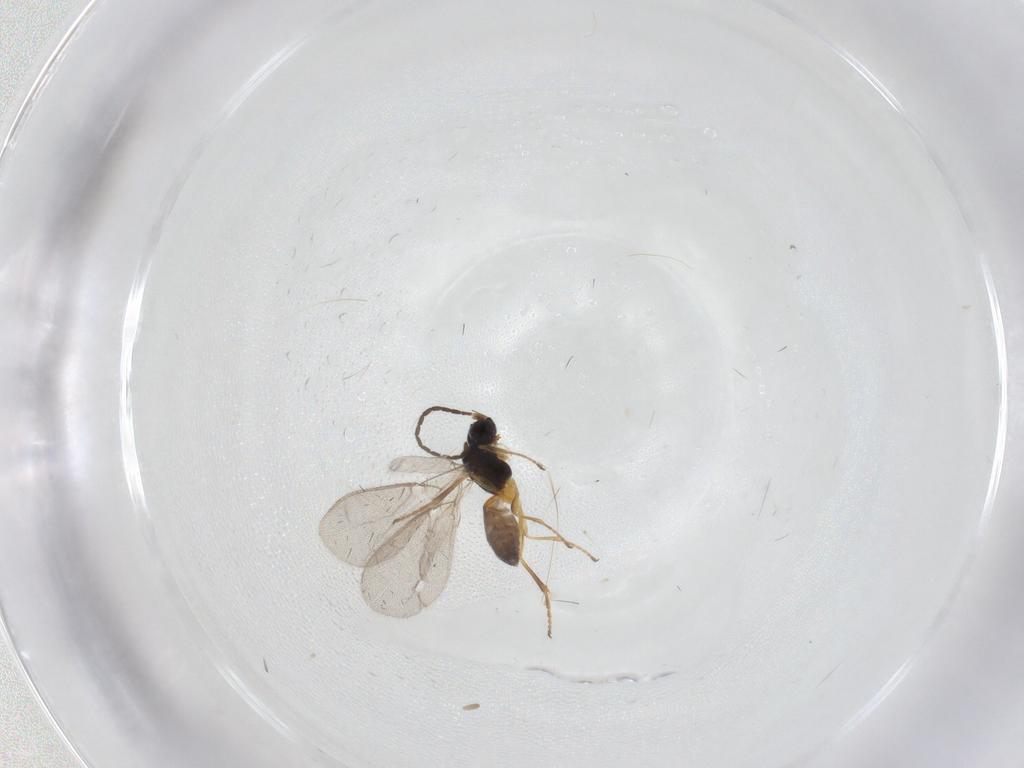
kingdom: Animalia
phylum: Arthropoda
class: Insecta
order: Hymenoptera
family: Braconidae
